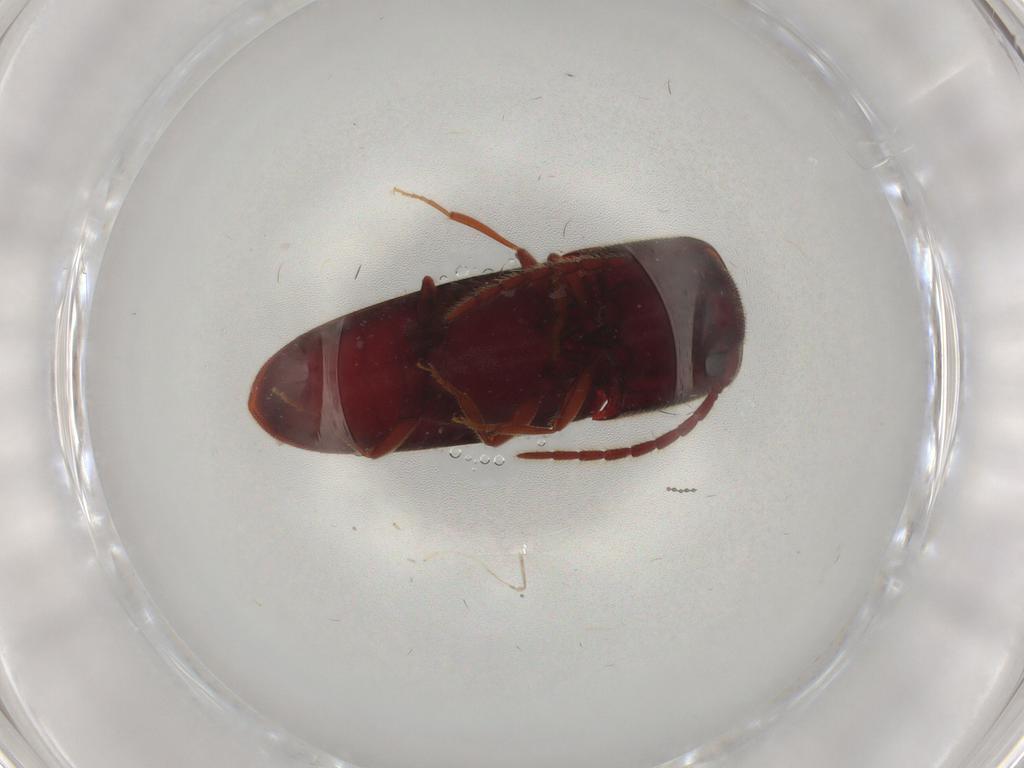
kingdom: Animalia
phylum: Arthropoda
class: Insecta
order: Coleoptera
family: Eucnemidae
